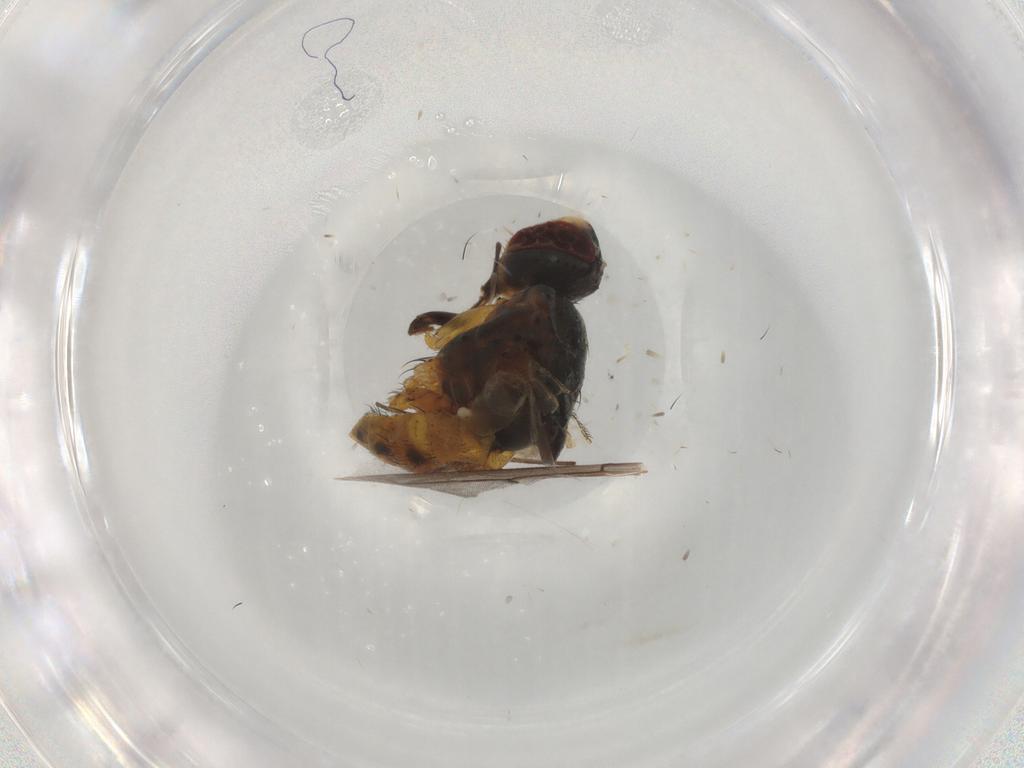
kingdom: Animalia
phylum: Arthropoda
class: Insecta
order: Diptera
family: Muscidae
